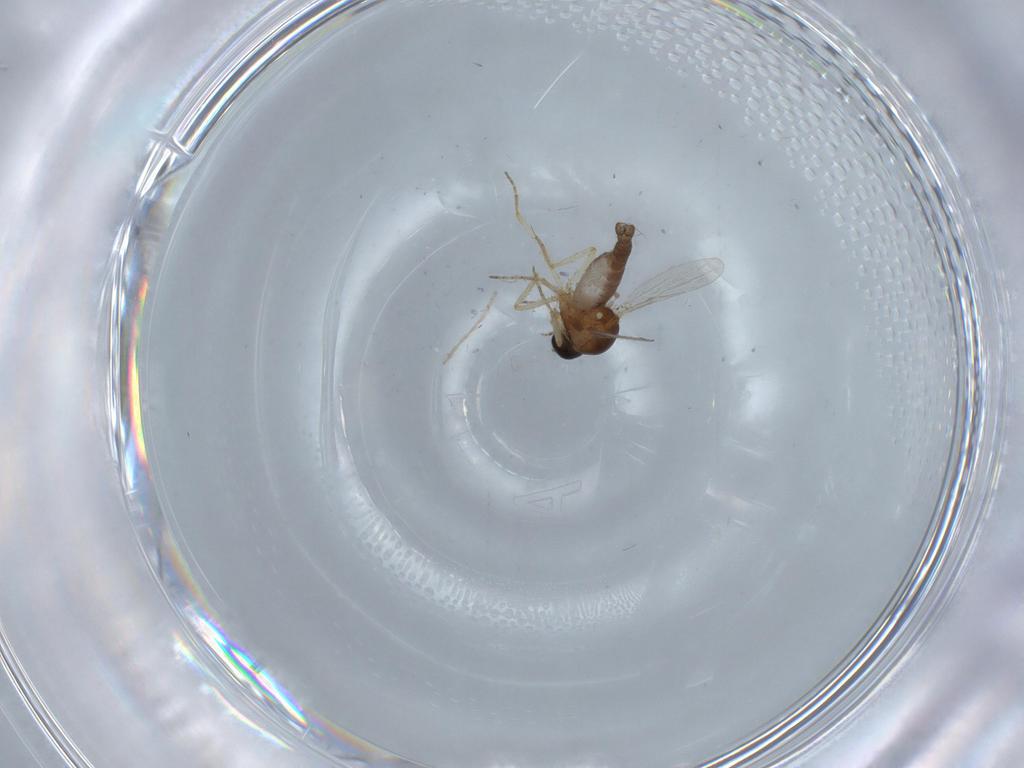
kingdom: Animalia
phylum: Arthropoda
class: Insecta
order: Diptera
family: Ceratopogonidae
